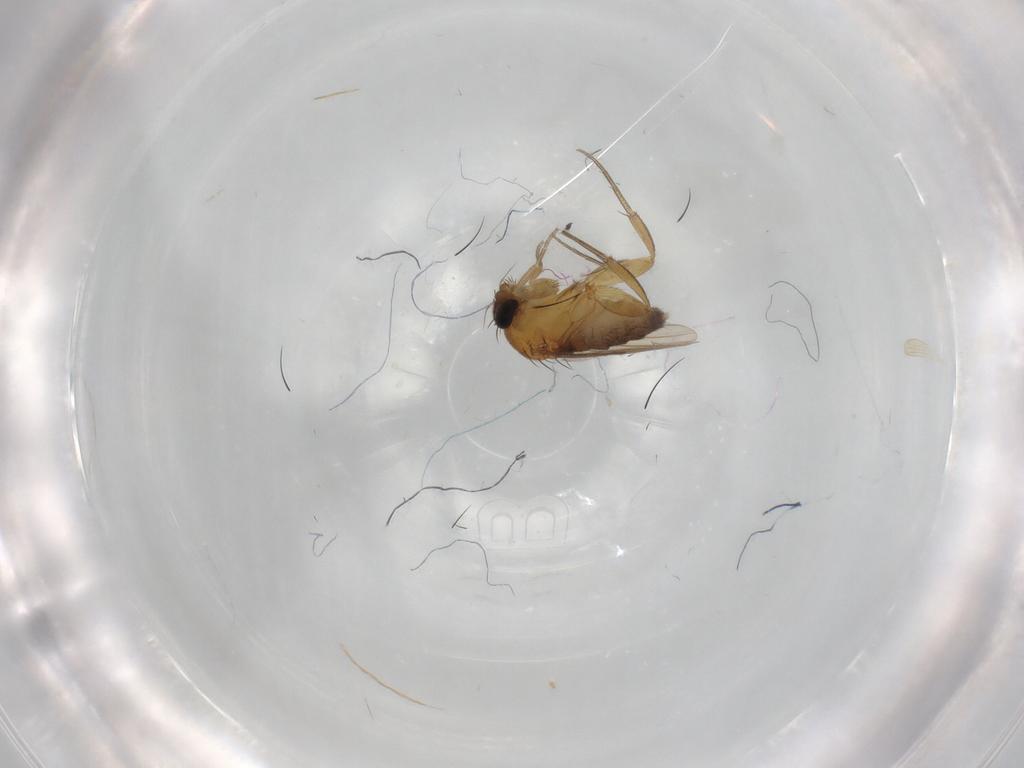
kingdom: Animalia
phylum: Arthropoda
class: Insecta
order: Diptera
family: Phoridae
